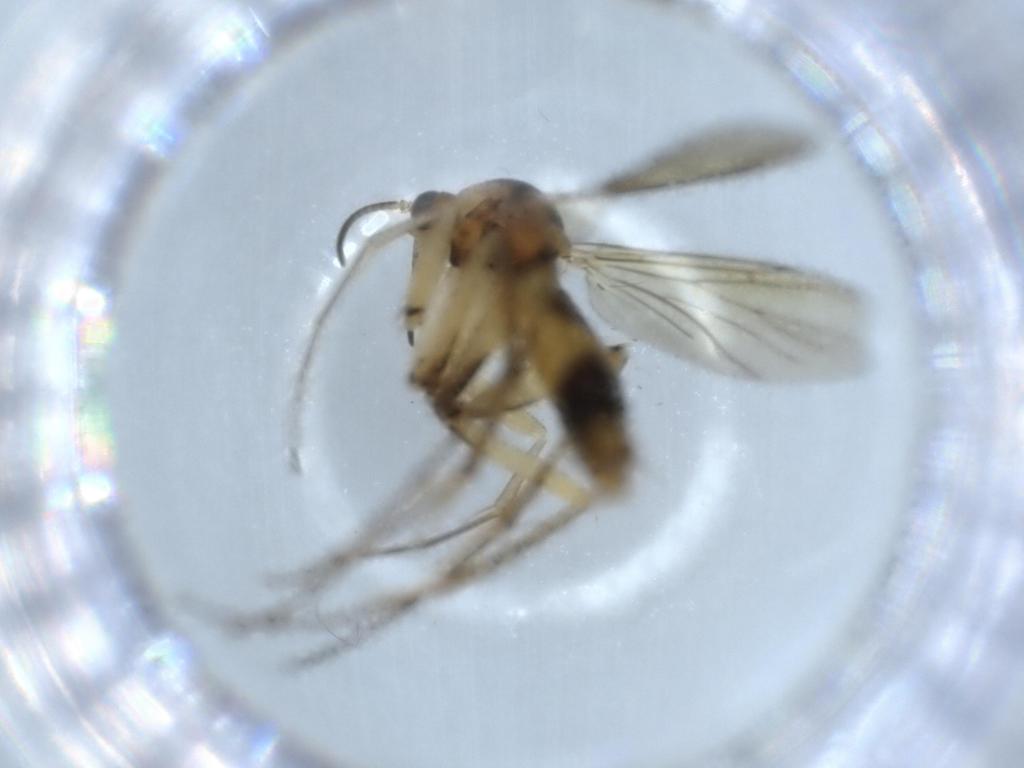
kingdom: Animalia
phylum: Arthropoda
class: Insecta
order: Diptera
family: Mycetophilidae
